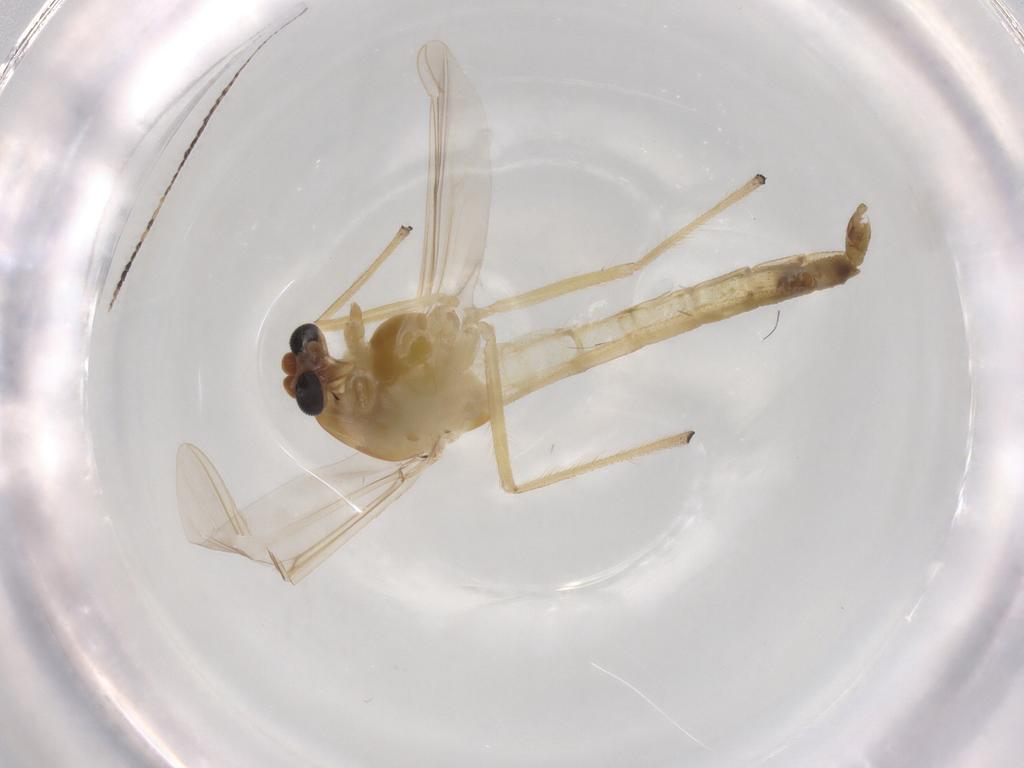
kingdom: Animalia
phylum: Arthropoda
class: Insecta
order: Diptera
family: Chironomidae
